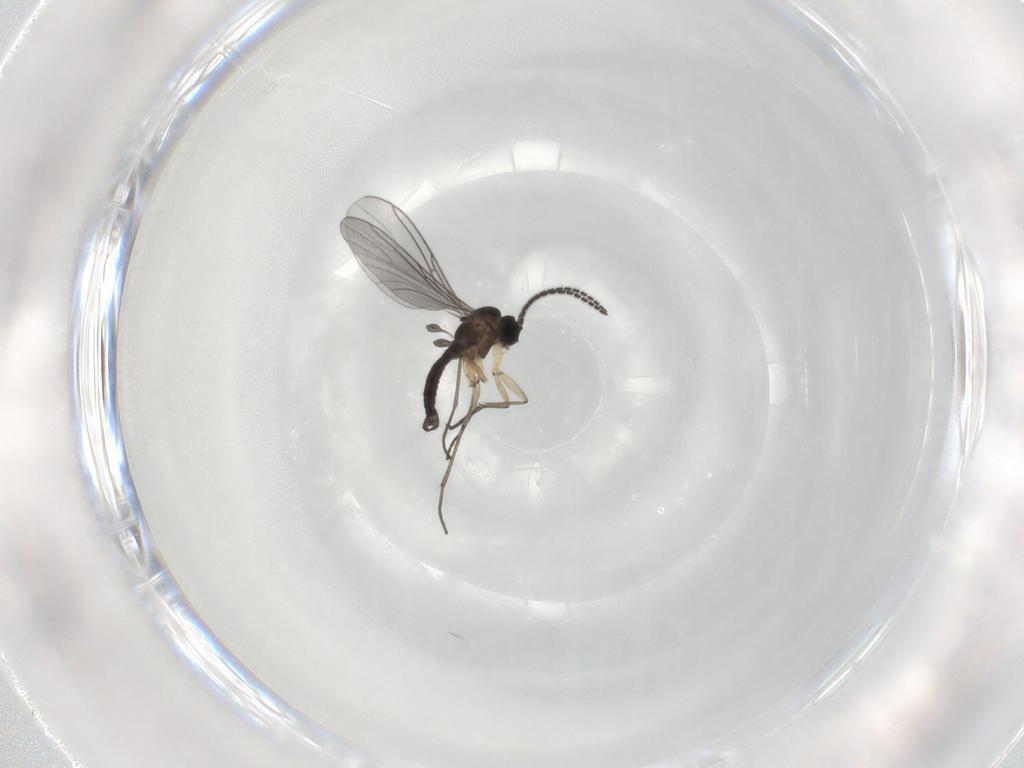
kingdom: Animalia
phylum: Arthropoda
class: Insecta
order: Diptera
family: Sciaridae
